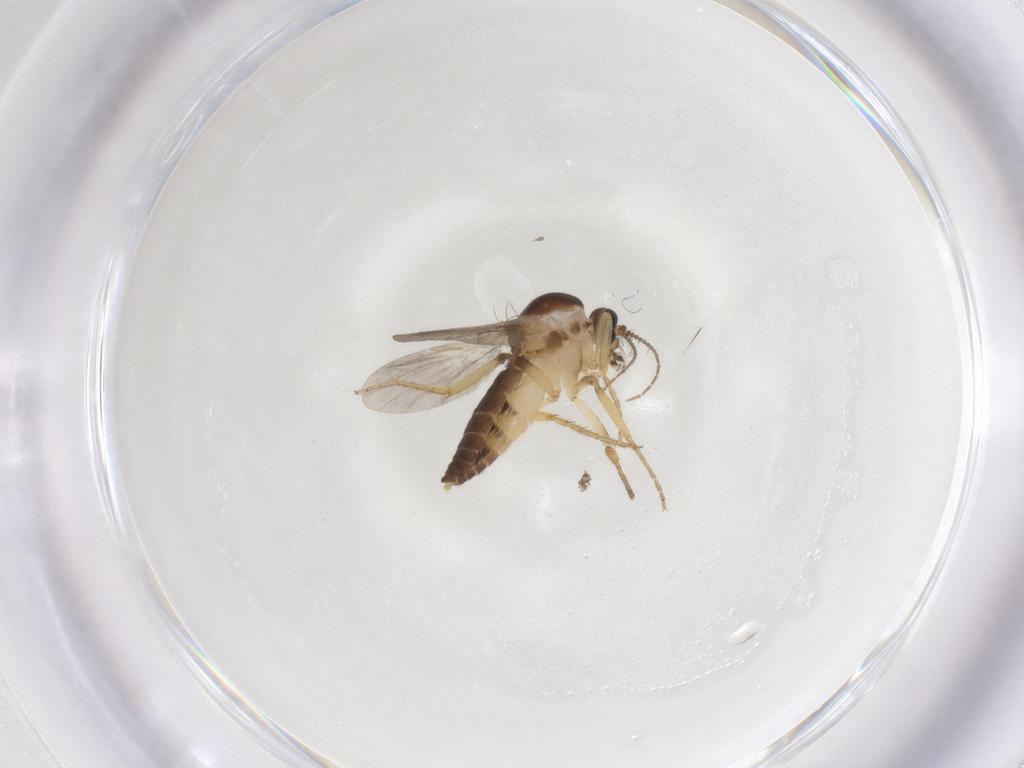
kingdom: Animalia
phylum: Arthropoda
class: Insecta
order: Diptera
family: Ceratopogonidae
